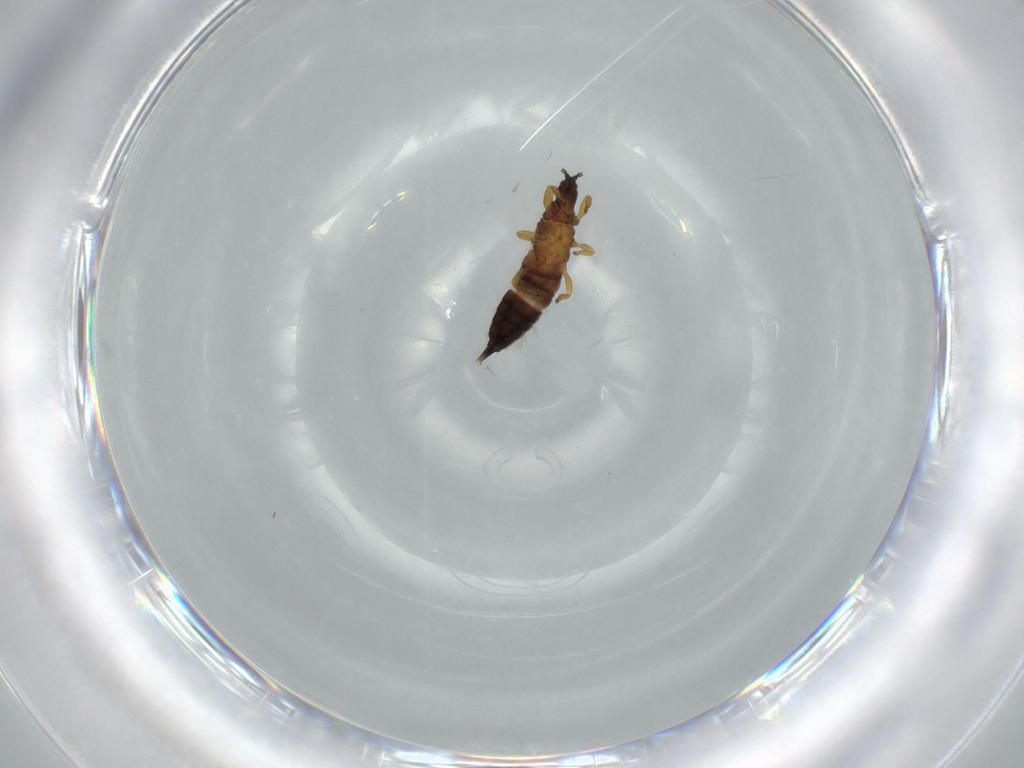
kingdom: Animalia
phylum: Arthropoda
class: Insecta
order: Thysanoptera
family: Phlaeothripidae
